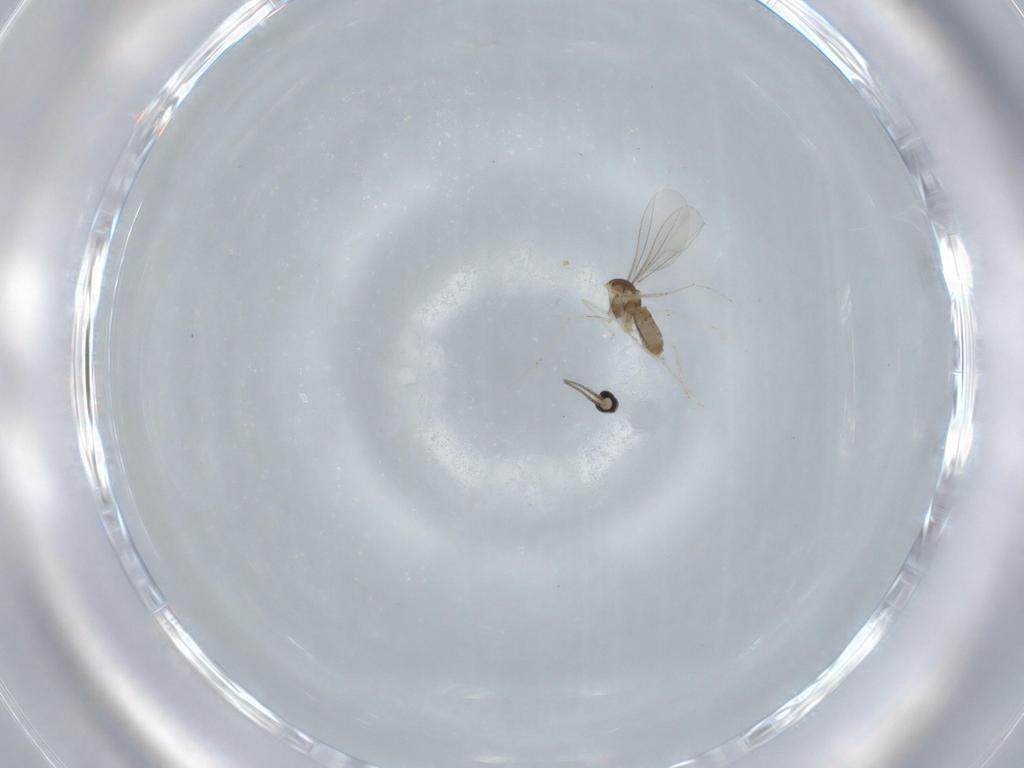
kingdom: Animalia
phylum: Arthropoda
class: Insecta
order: Diptera
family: Cecidomyiidae
